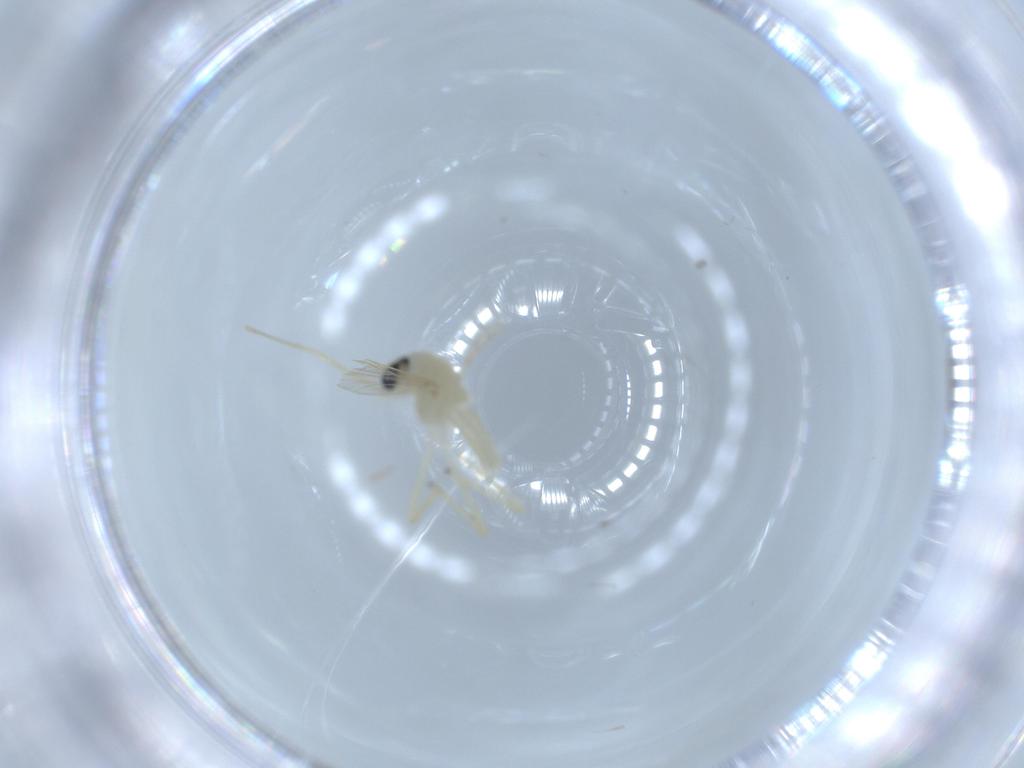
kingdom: Animalia
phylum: Arthropoda
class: Insecta
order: Diptera
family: Chironomidae
